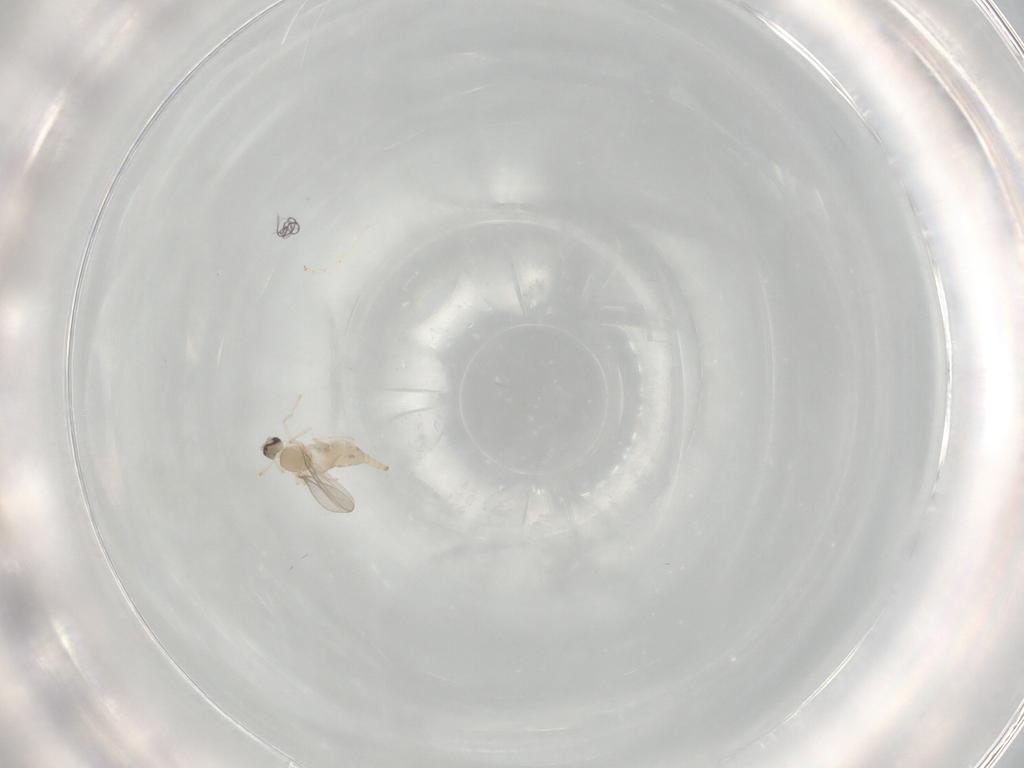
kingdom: Animalia
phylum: Arthropoda
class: Insecta
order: Diptera
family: Cecidomyiidae
